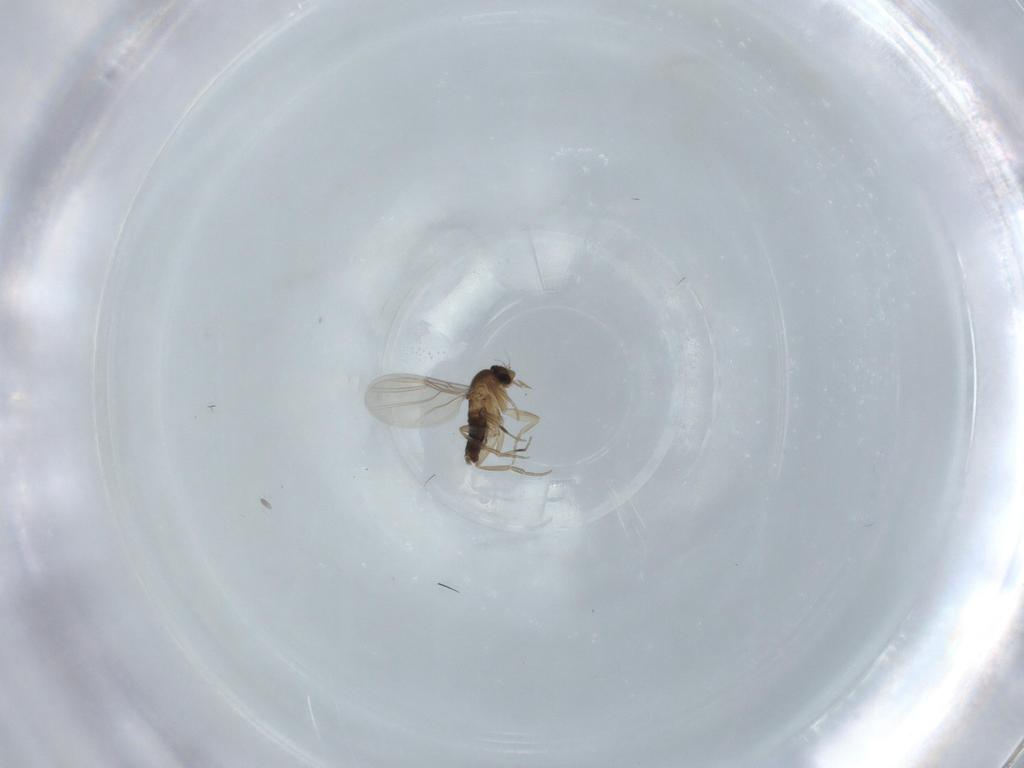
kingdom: Animalia
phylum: Arthropoda
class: Insecta
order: Diptera
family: Phoridae
